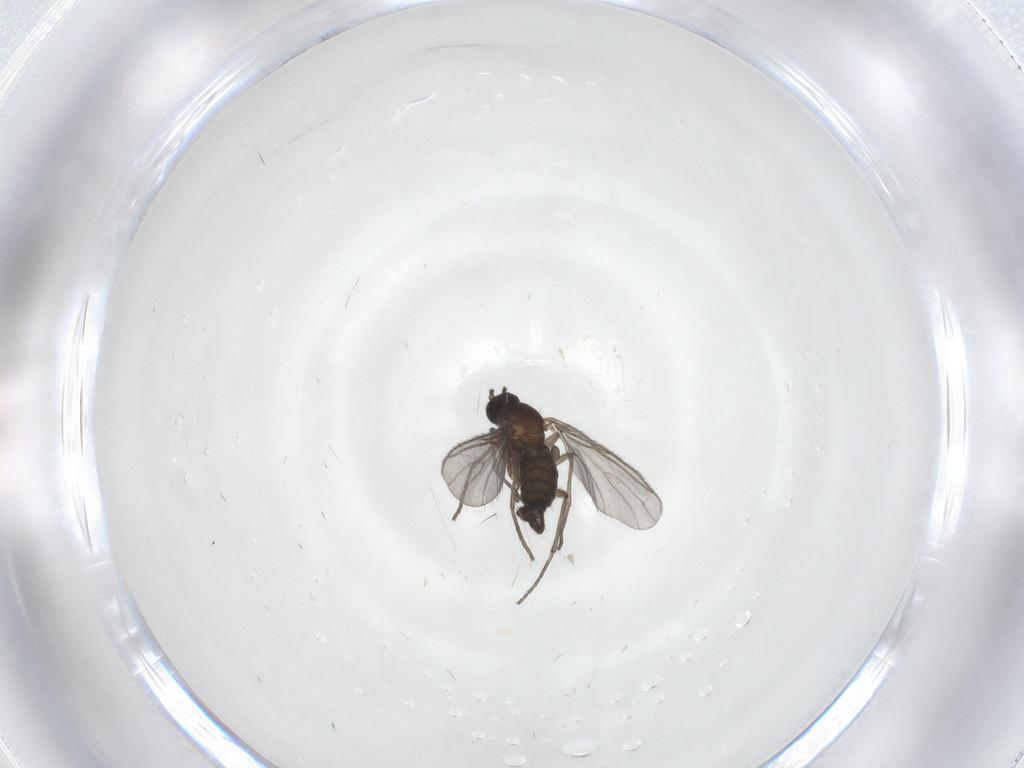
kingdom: Animalia
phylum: Arthropoda
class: Insecta
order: Diptera
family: Sciaridae
